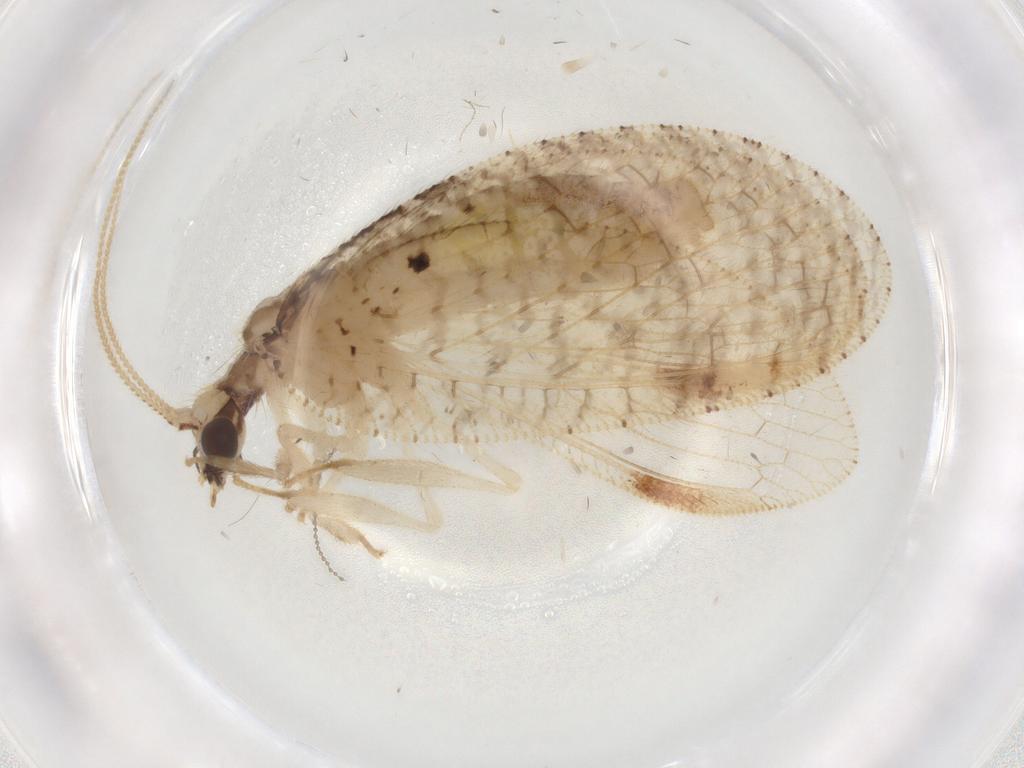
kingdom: Animalia
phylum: Arthropoda
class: Insecta
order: Neuroptera
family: Hemerobiidae
